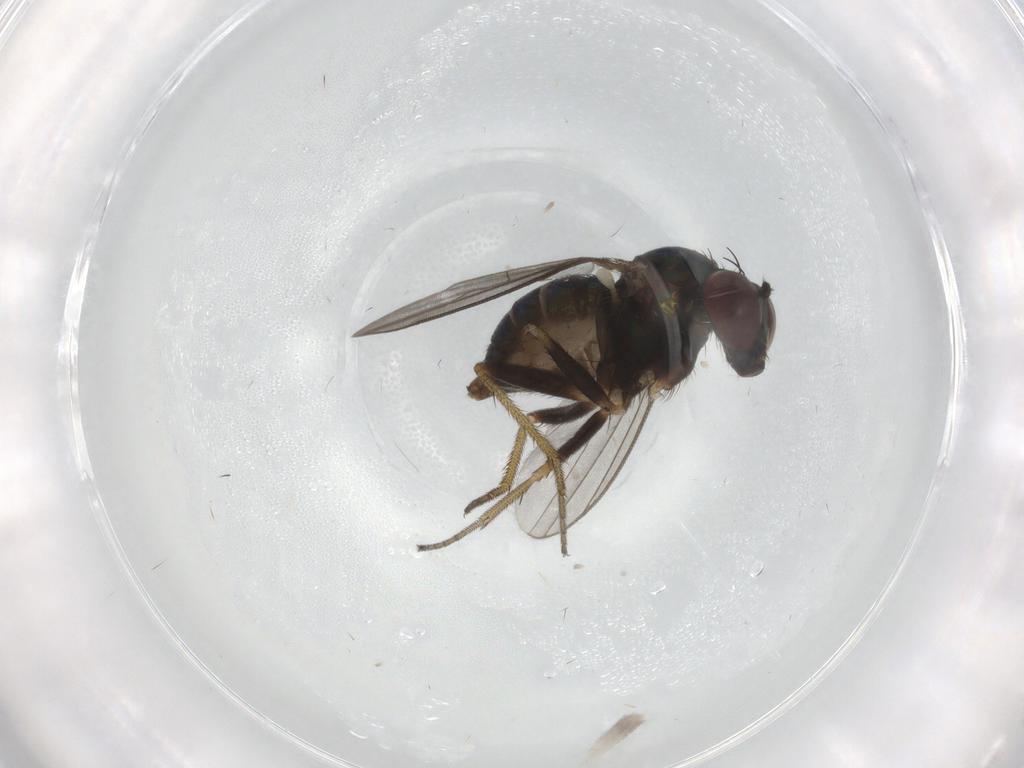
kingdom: Animalia
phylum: Arthropoda
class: Insecta
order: Diptera
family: Dolichopodidae
